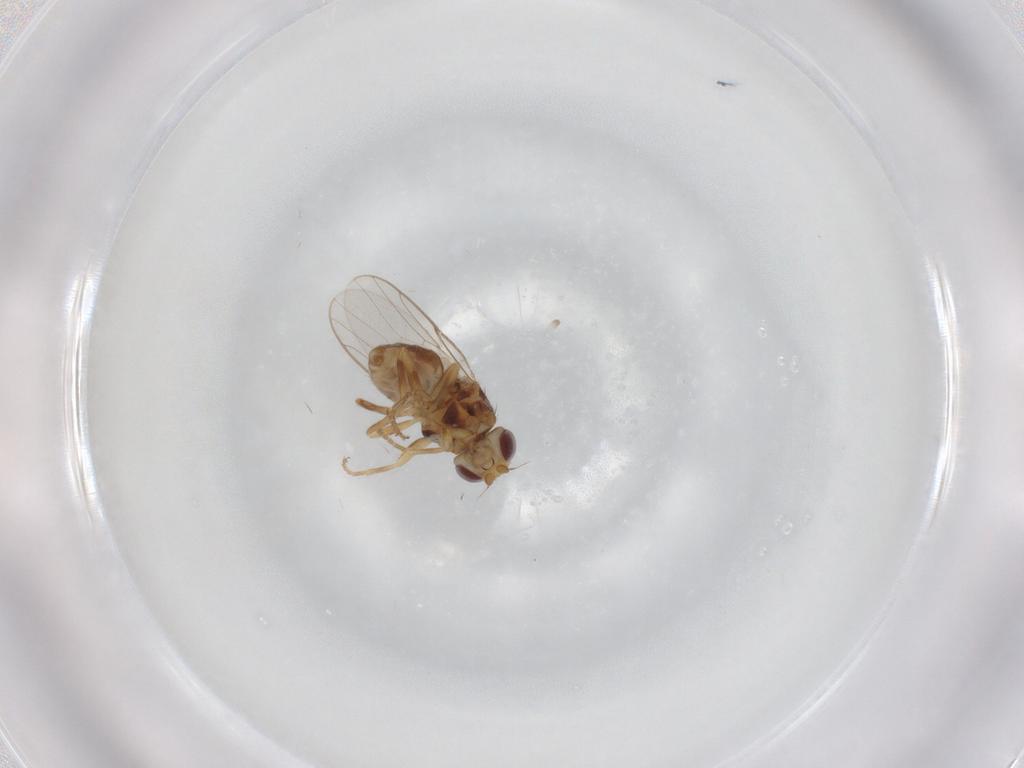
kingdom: Animalia
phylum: Arthropoda
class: Insecta
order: Diptera
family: Chloropidae
